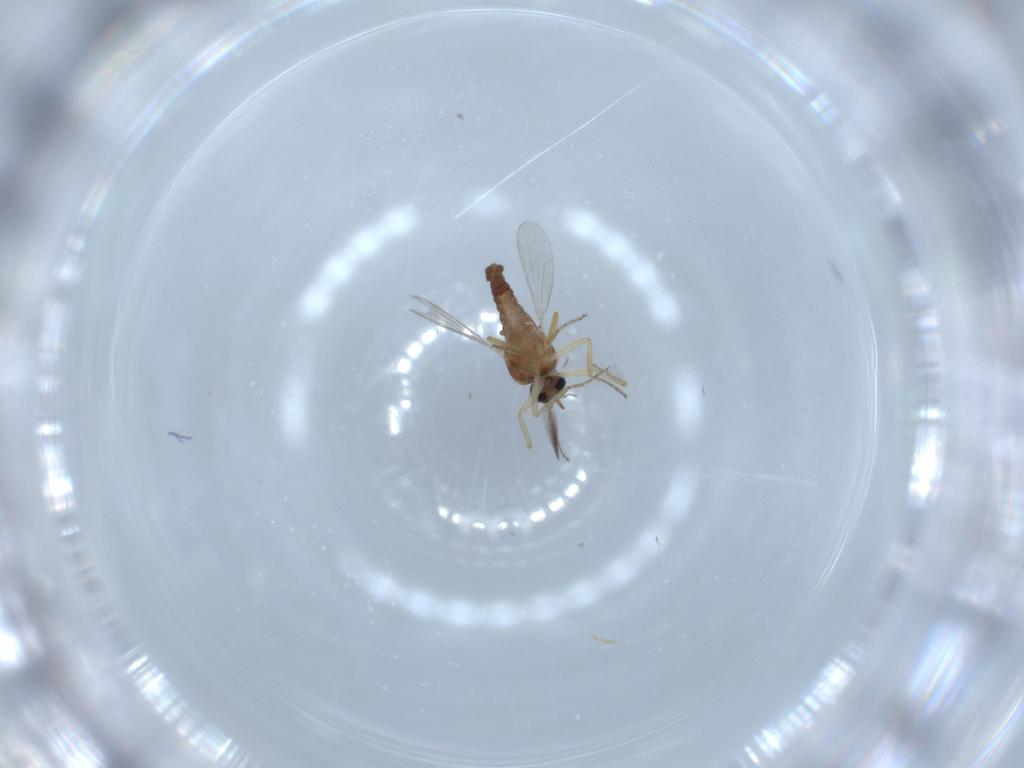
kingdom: Animalia
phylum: Arthropoda
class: Insecta
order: Diptera
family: Ceratopogonidae
